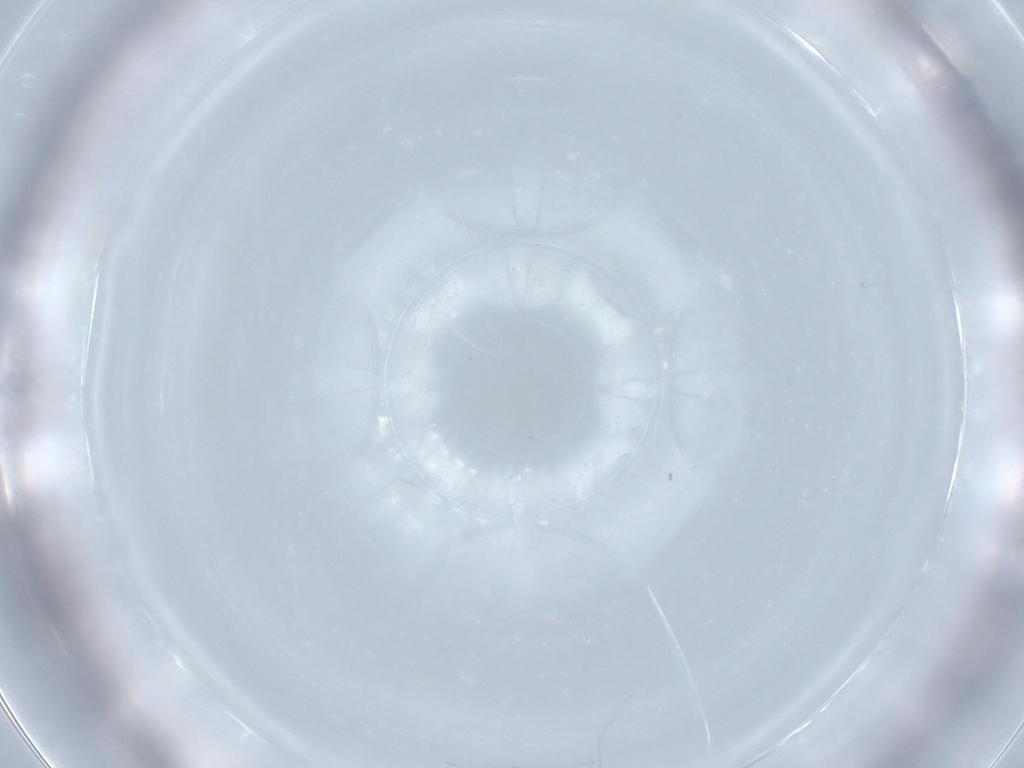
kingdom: Animalia
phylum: Arthropoda
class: Insecta
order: Diptera
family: Chironomidae
